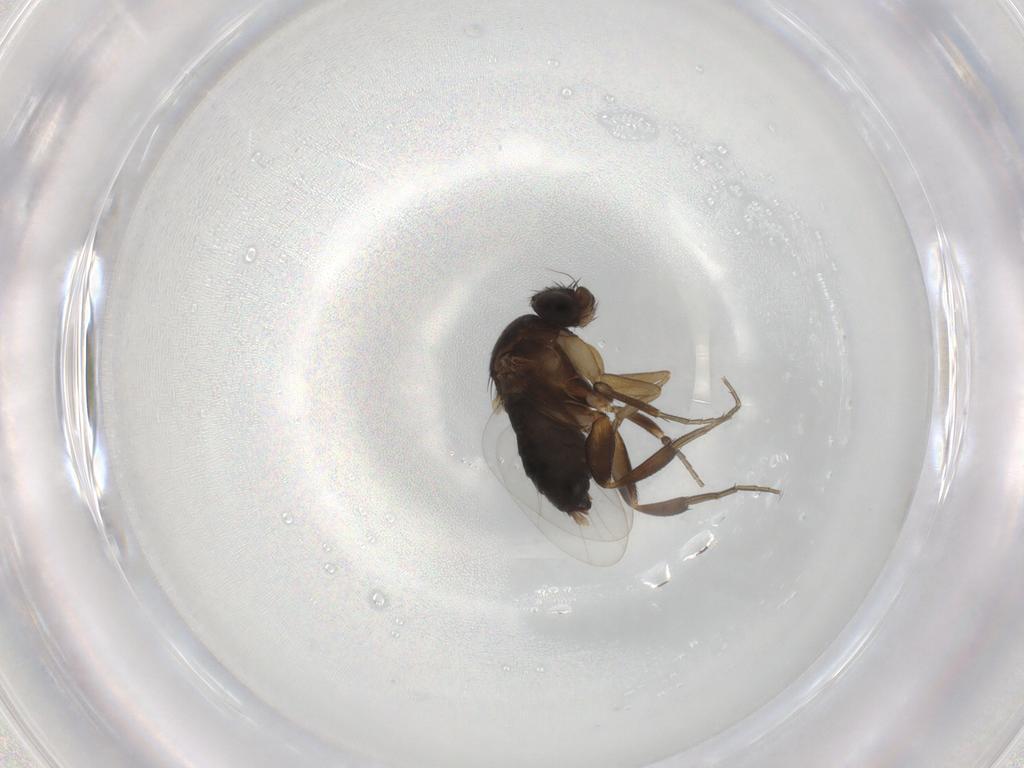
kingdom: Animalia
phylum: Arthropoda
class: Insecta
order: Diptera
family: Phoridae
